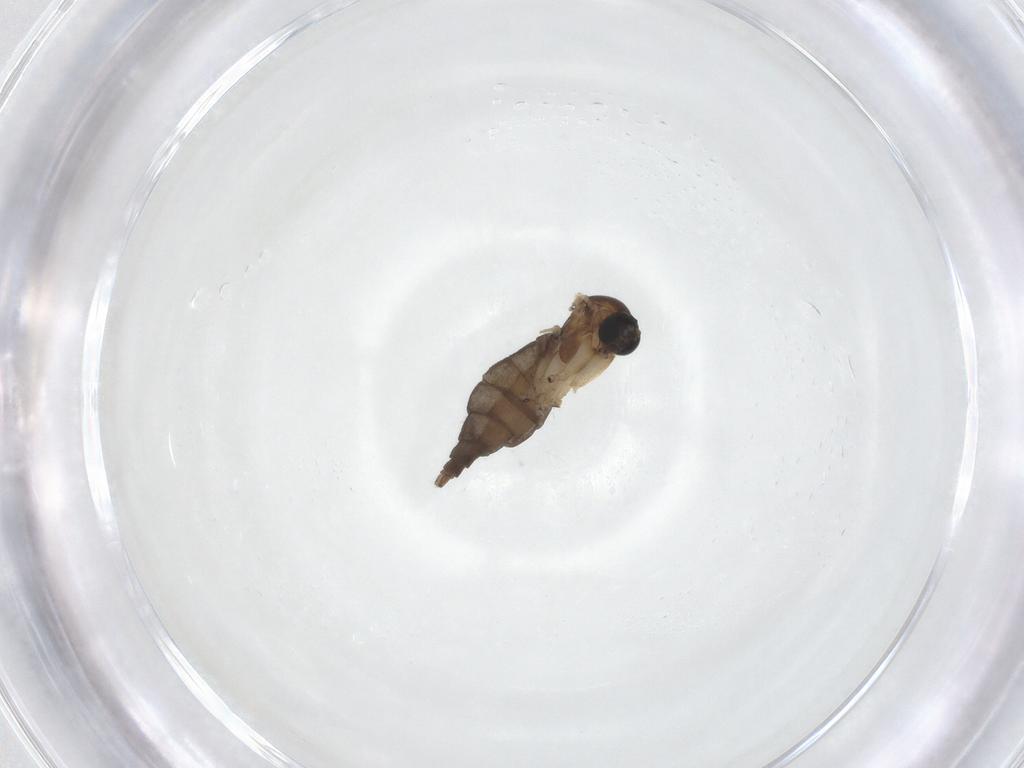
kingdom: Animalia
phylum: Arthropoda
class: Insecta
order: Diptera
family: Sciaridae
